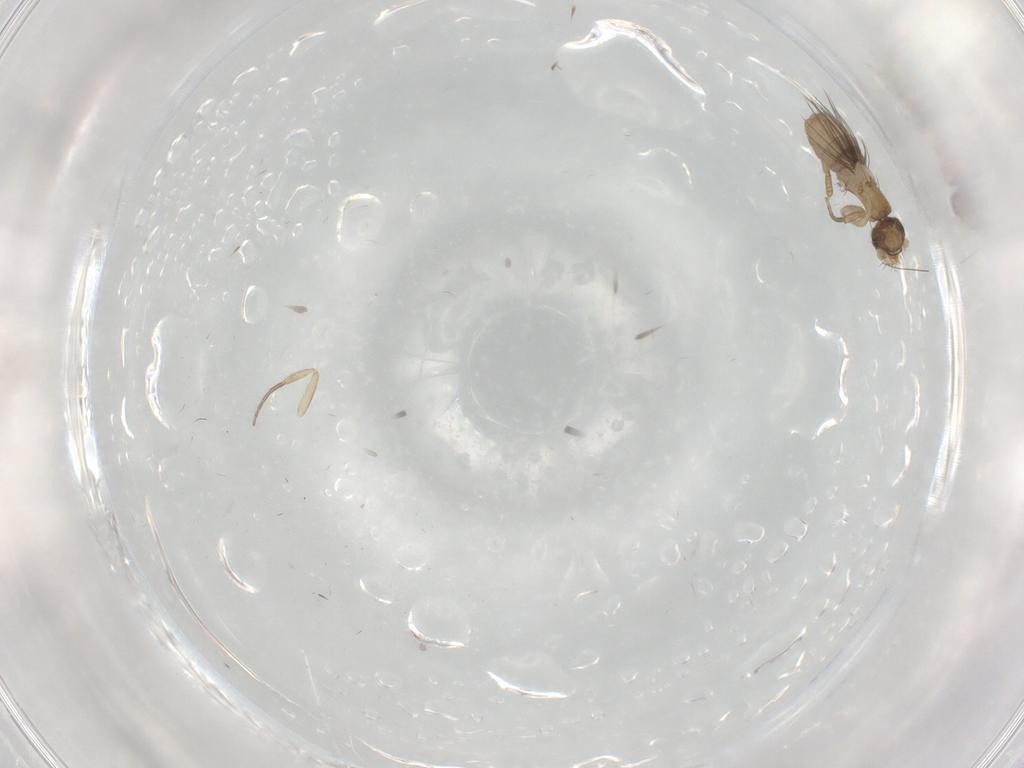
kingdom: Animalia
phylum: Arthropoda
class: Insecta
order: Diptera
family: Phoridae
